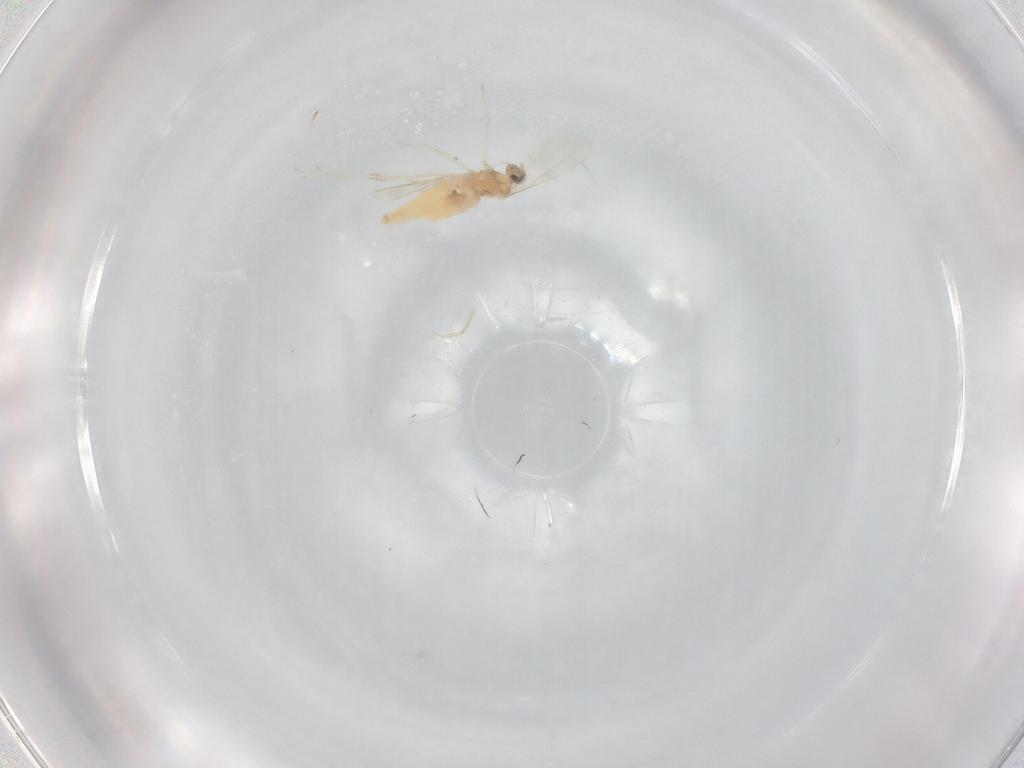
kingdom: Animalia
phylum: Arthropoda
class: Insecta
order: Diptera
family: Cecidomyiidae
